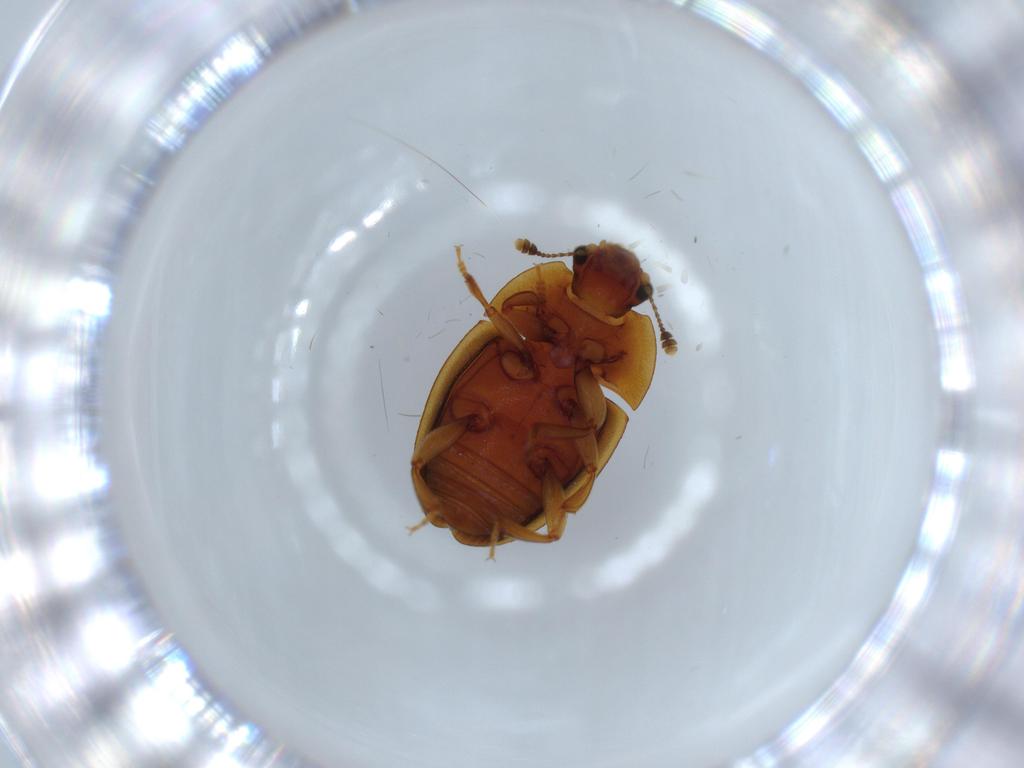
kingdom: Animalia
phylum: Arthropoda
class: Insecta
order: Coleoptera
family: Nitidulidae
